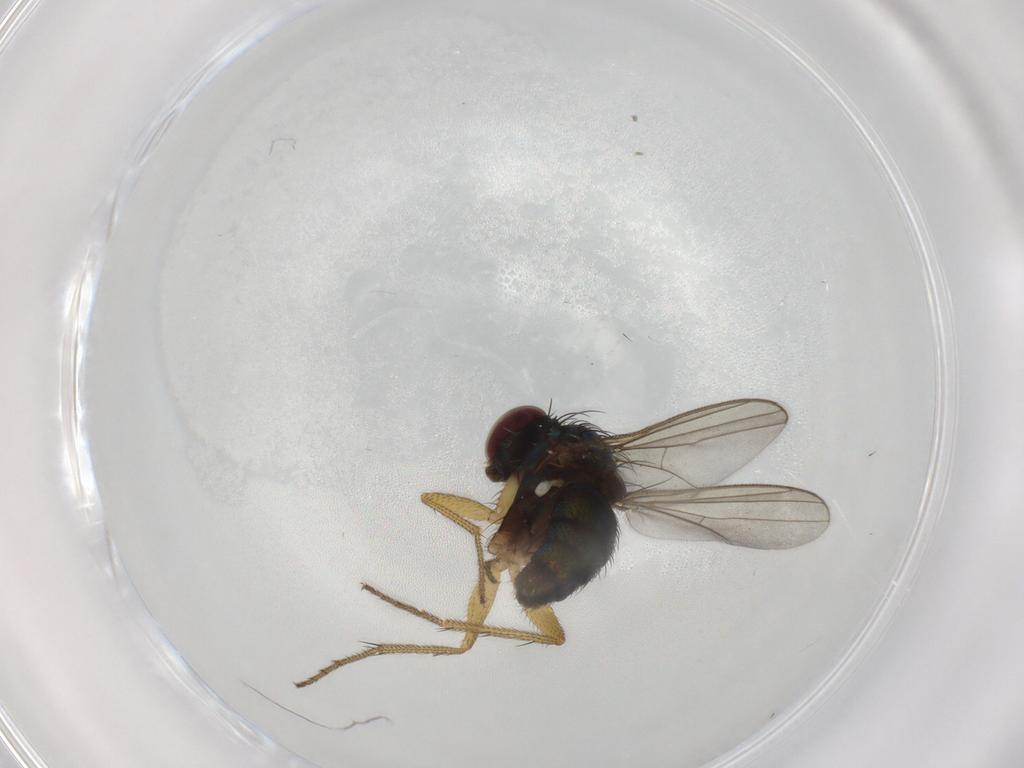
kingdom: Animalia
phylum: Arthropoda
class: Insecta
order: Diptera
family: Dolichopodidae
